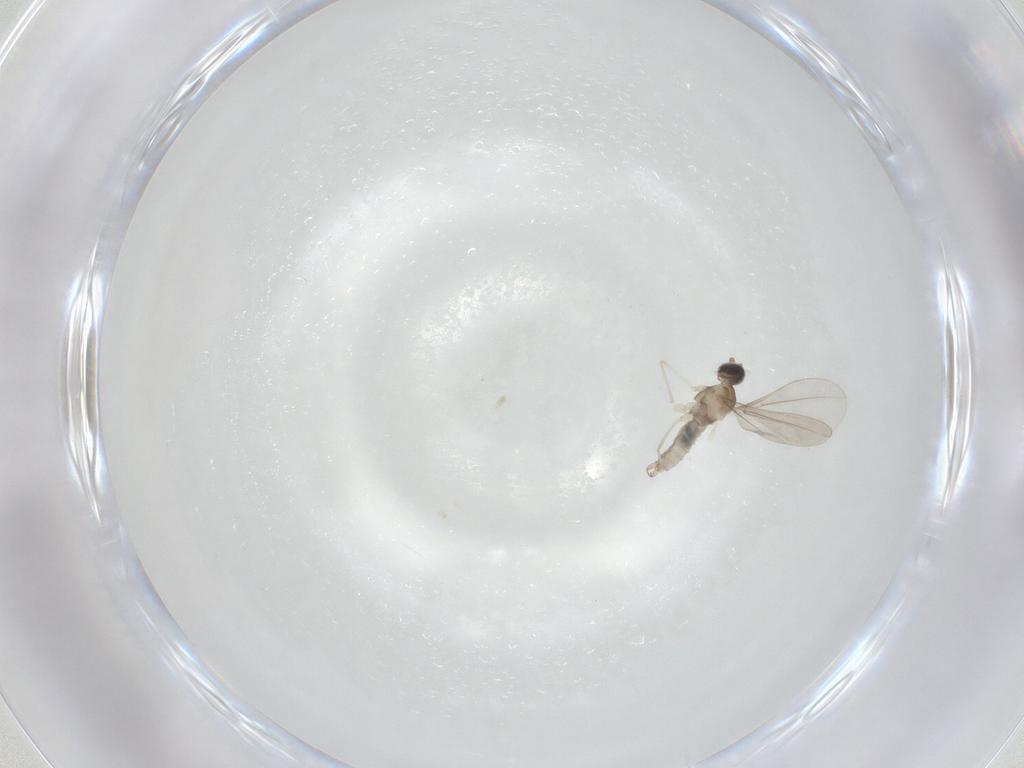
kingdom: Animalia
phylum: Arthropoda
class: Insecta
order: Diptera
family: Cecidomyiidae
